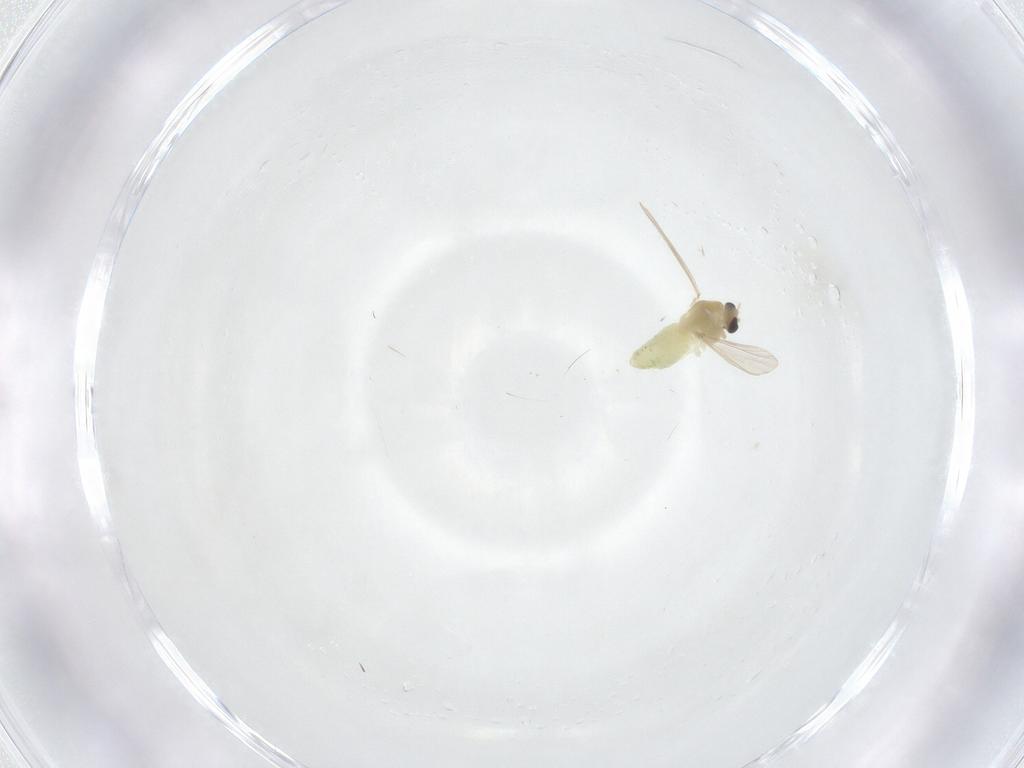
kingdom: Animalia
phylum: Arthropoda
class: Insecta
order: Diptera
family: Chironomidae
